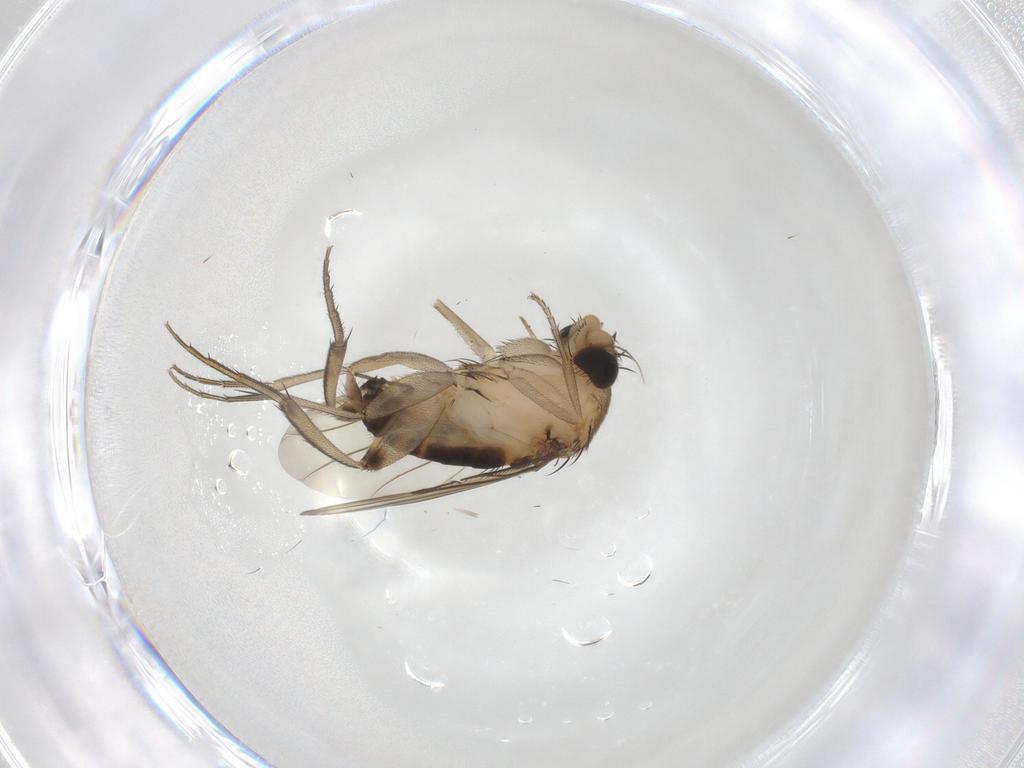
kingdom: Animalia
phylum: Arthropoda
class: Insecta
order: Diptera
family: Phoridae
